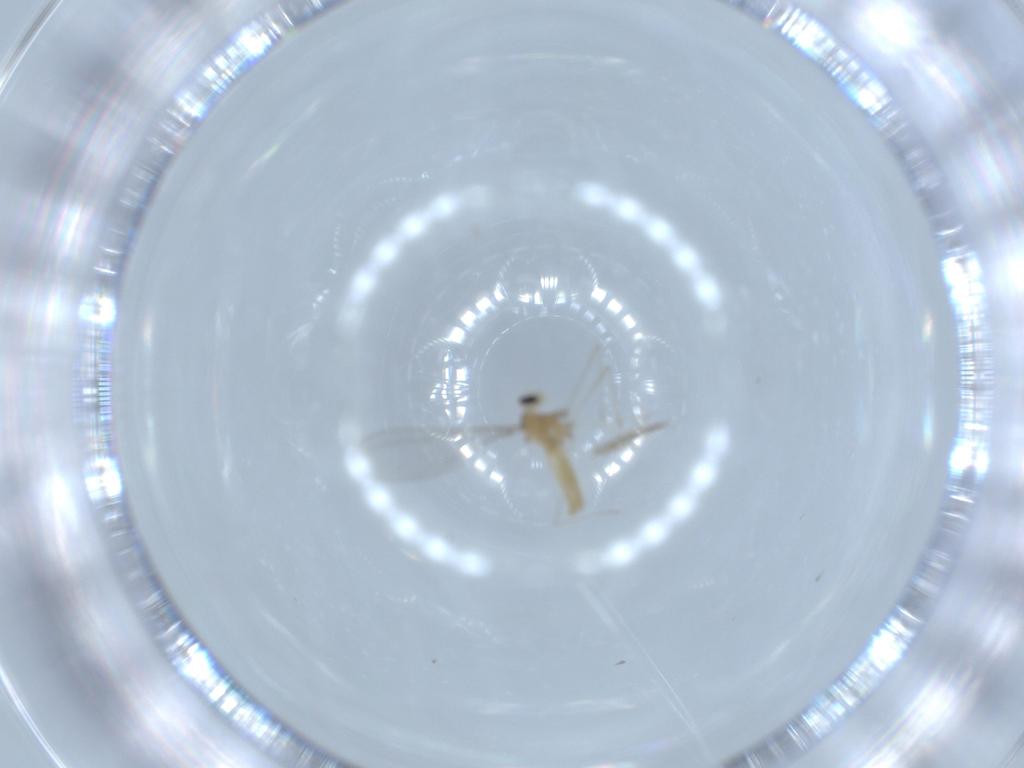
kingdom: Animalia
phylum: Arthropoda
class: Insecta
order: Diptera
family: Cecidomyiidae
